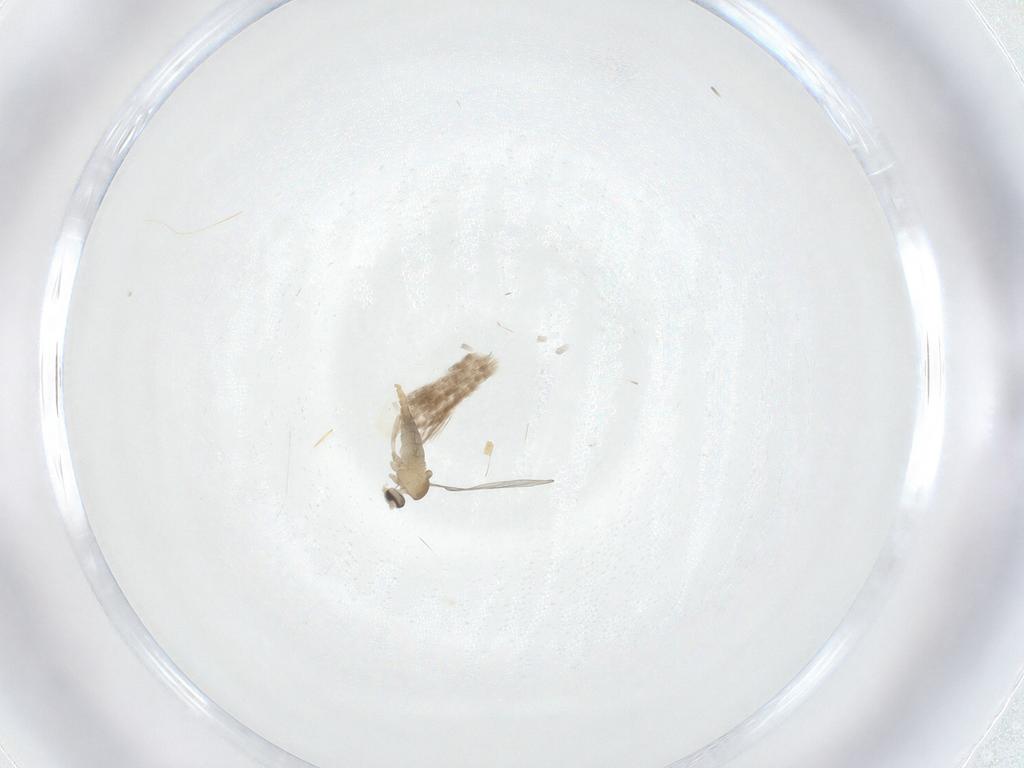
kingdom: Animalia
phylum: Arthropoda
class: Insecta
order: Diptera
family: Cecidomyiidae
